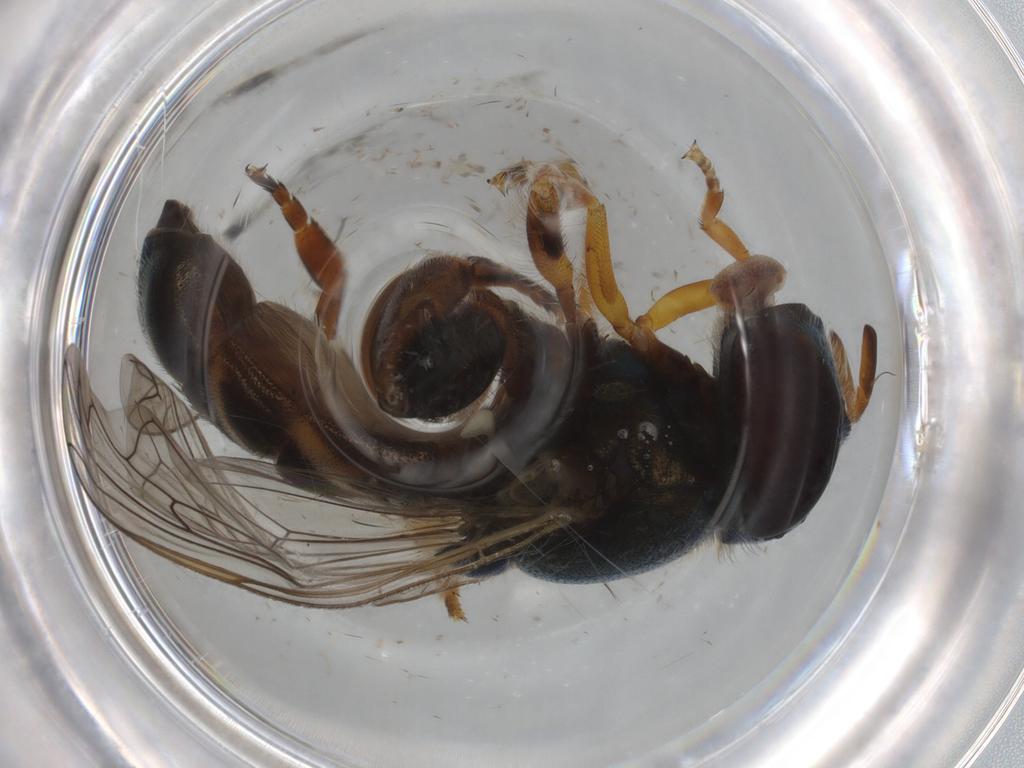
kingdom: Animalia
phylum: Arthropoda
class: Insecta
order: Diptera
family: Syrphidae
